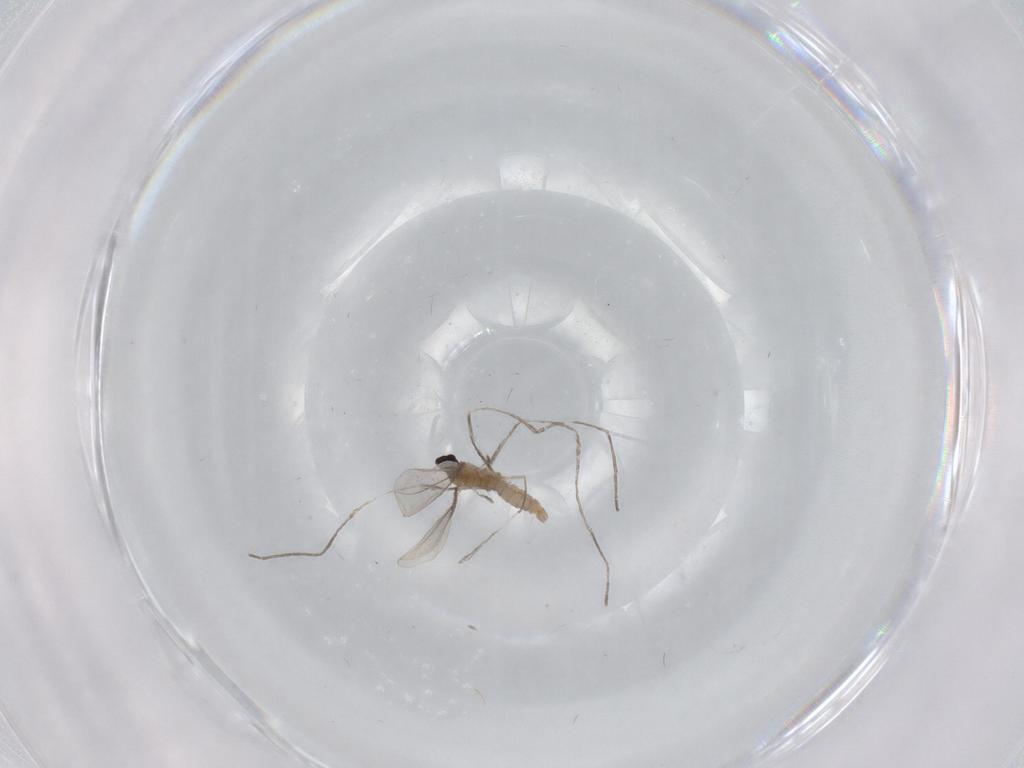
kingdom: Animalia
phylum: Arthropoda
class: Insecta
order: Diptera
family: Cecidomyiidae
